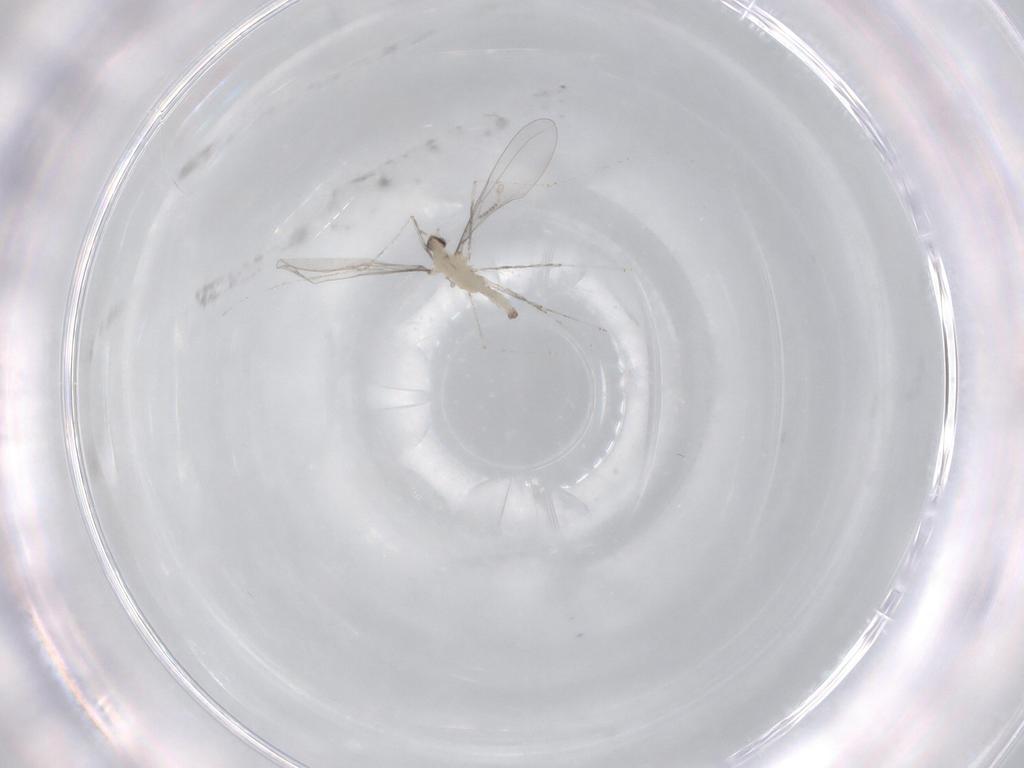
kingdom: Animalia
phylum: Arthropoda
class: Insecta
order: Diptera
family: Cecidomyiidae
